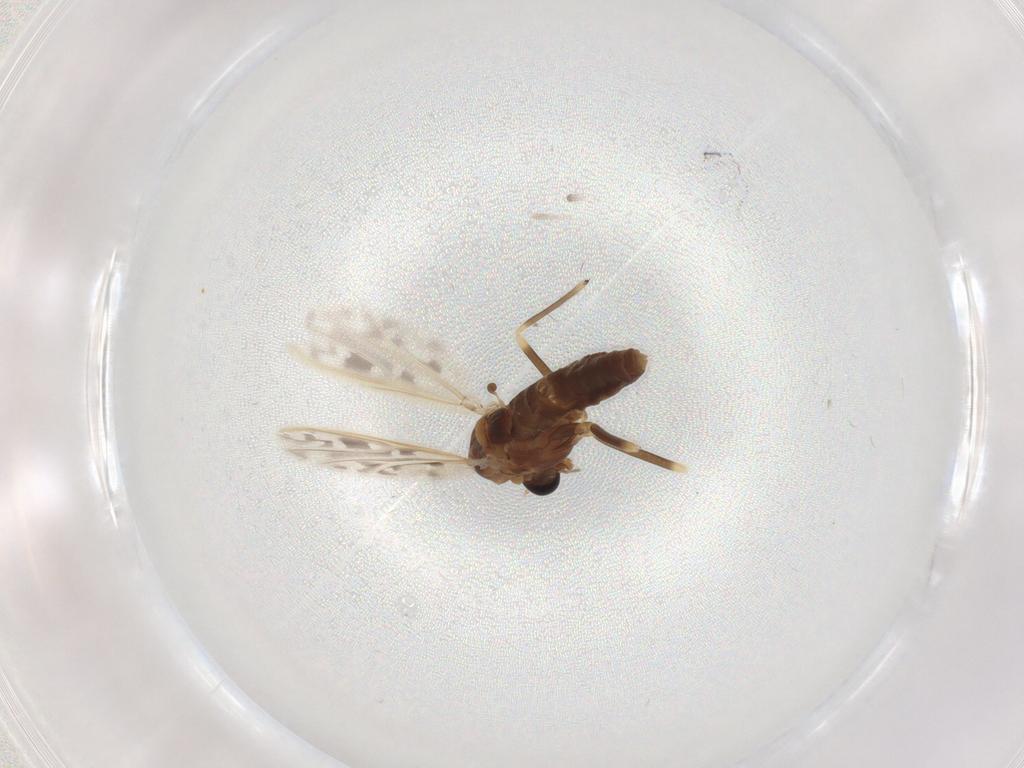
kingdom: Animalia
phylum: Arthropoda
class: Insecta
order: Diptera
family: Chironomidae
